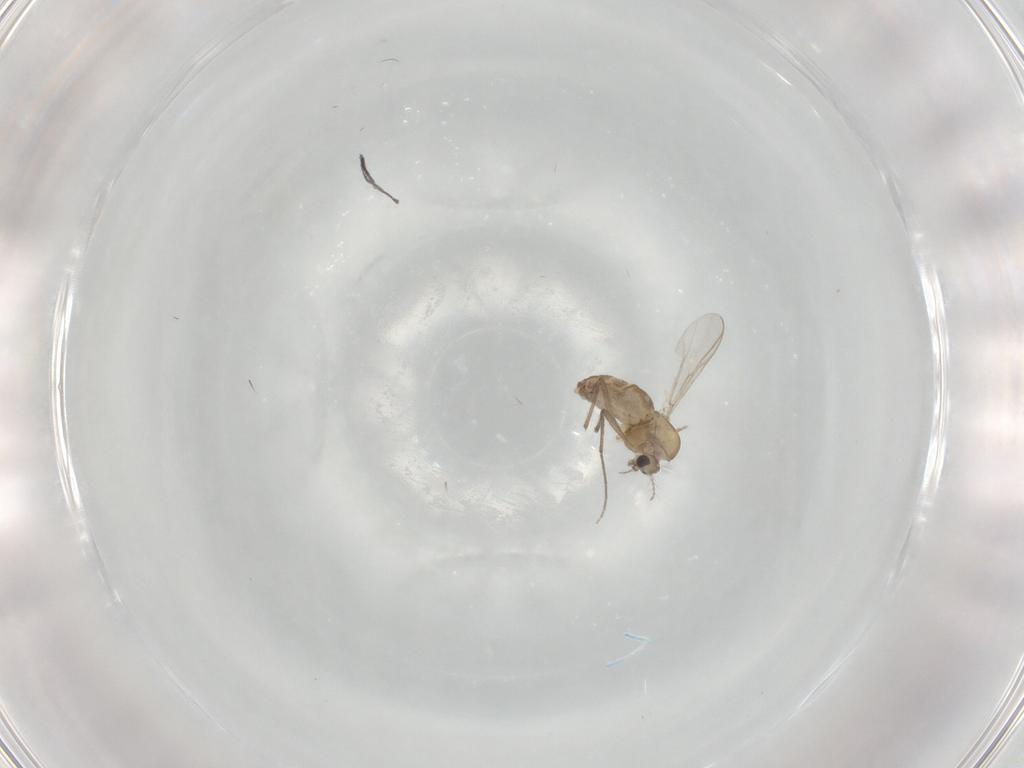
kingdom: Animalia
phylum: Arthropoda
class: Insecta
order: Diptera
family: Chironomidae
